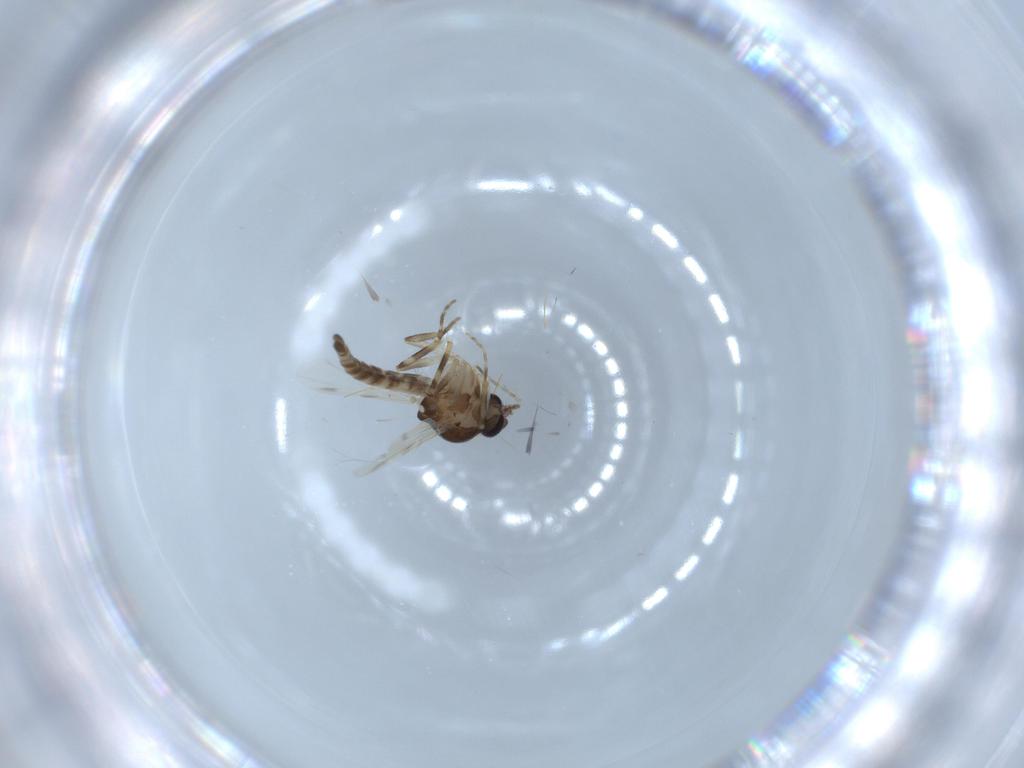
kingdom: Animalia
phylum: Arthropoda
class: Insecta
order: Diptera
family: Ceratopogonidae
